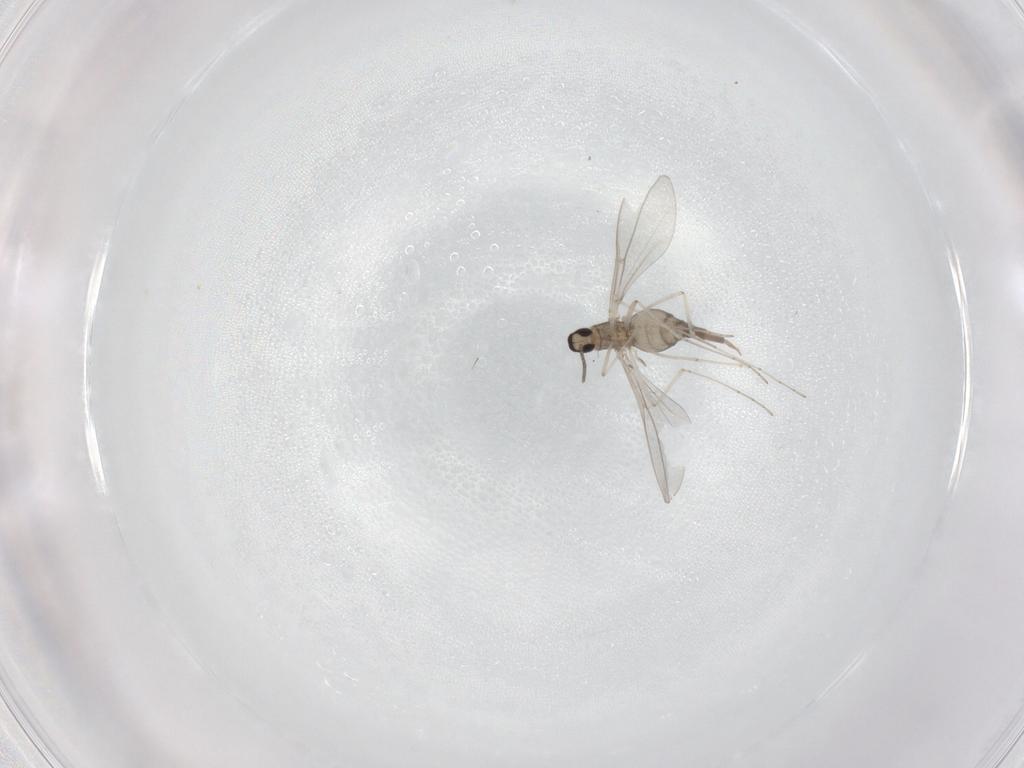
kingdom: Animalia
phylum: Arthropoda
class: Insecta
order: Diptera
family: Cecidomyiidae
